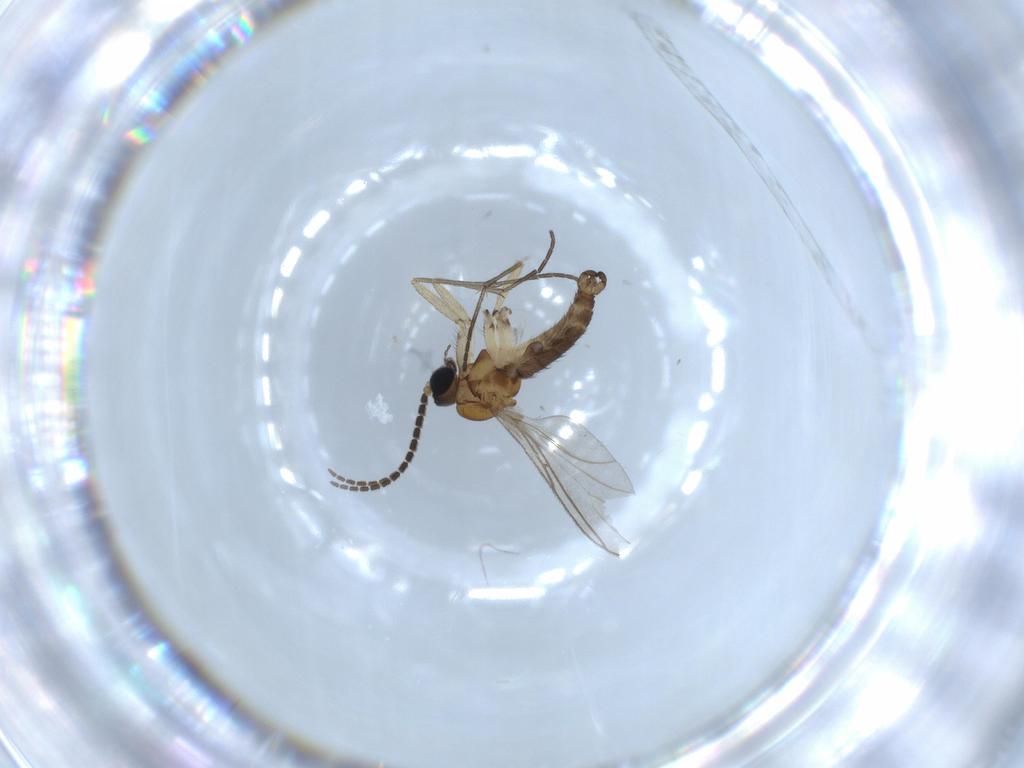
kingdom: Animalia
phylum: Arthropoda
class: Insecta
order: Diptera
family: Sciaridae
